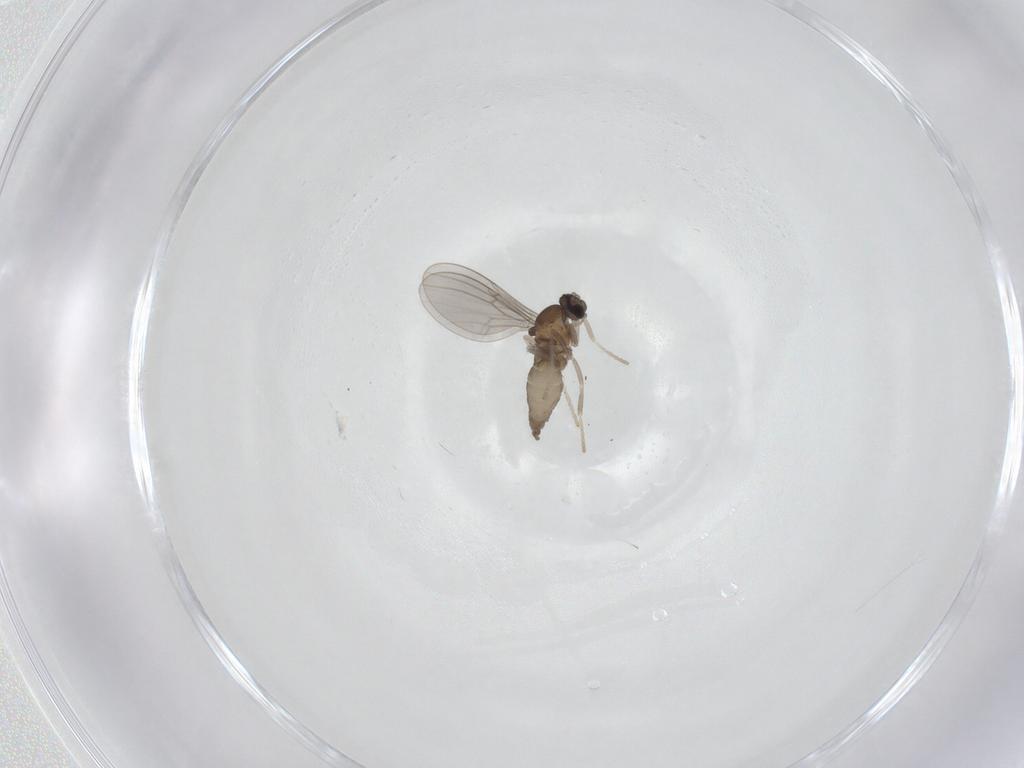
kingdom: Animalia
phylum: Arthropoda
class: Insecta
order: Diptera
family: Cecidomyiidae
